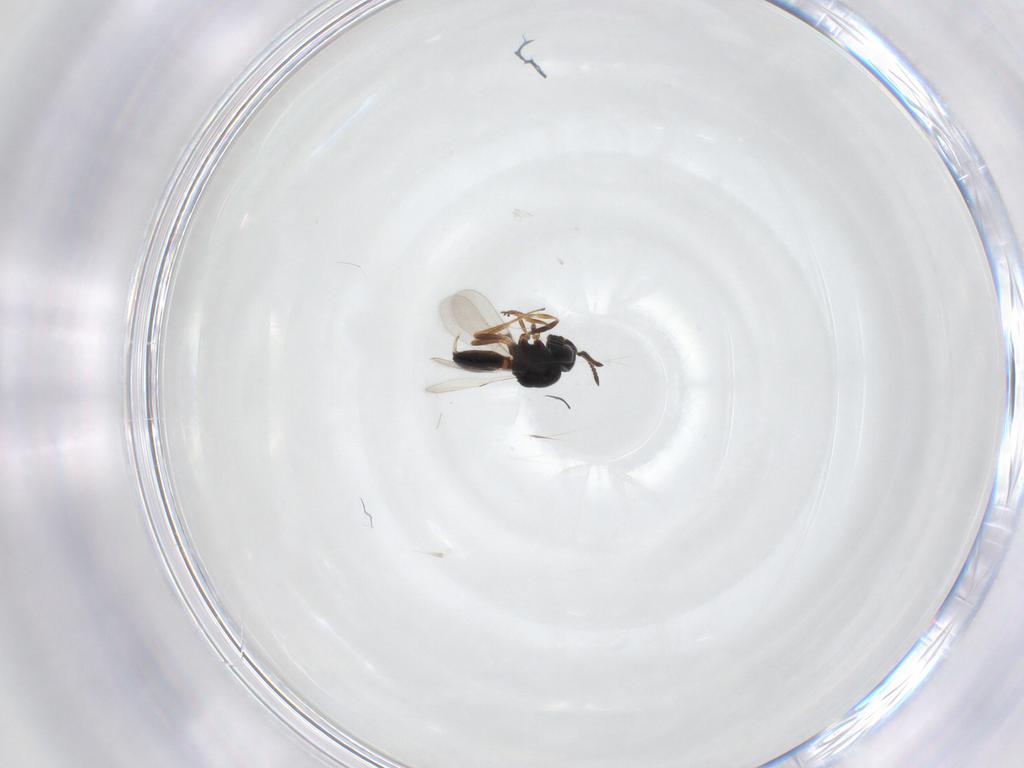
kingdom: Animalia
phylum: Arthropoda
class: Arachnida
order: Araneae
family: Pholcidae
